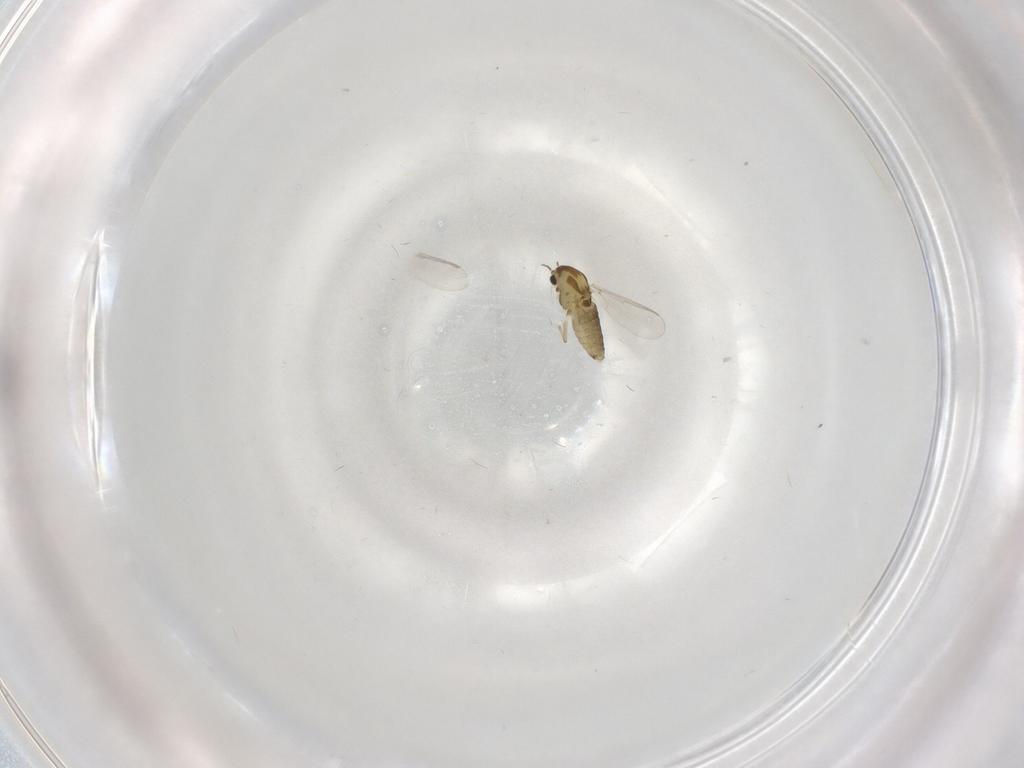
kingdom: Animalia
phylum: Arthropoda
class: Insecta
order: Diptera
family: Chironomidae
